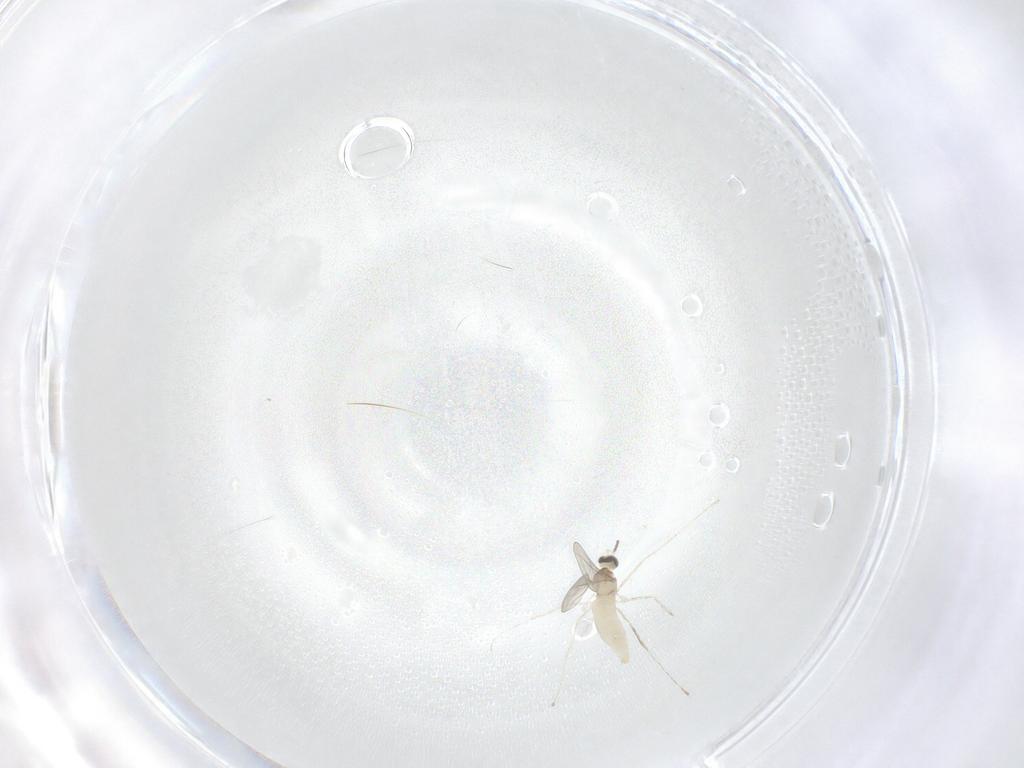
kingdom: Animalia
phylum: Arthropoda
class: Insecta
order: Diptera
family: Cecidomyiidae
